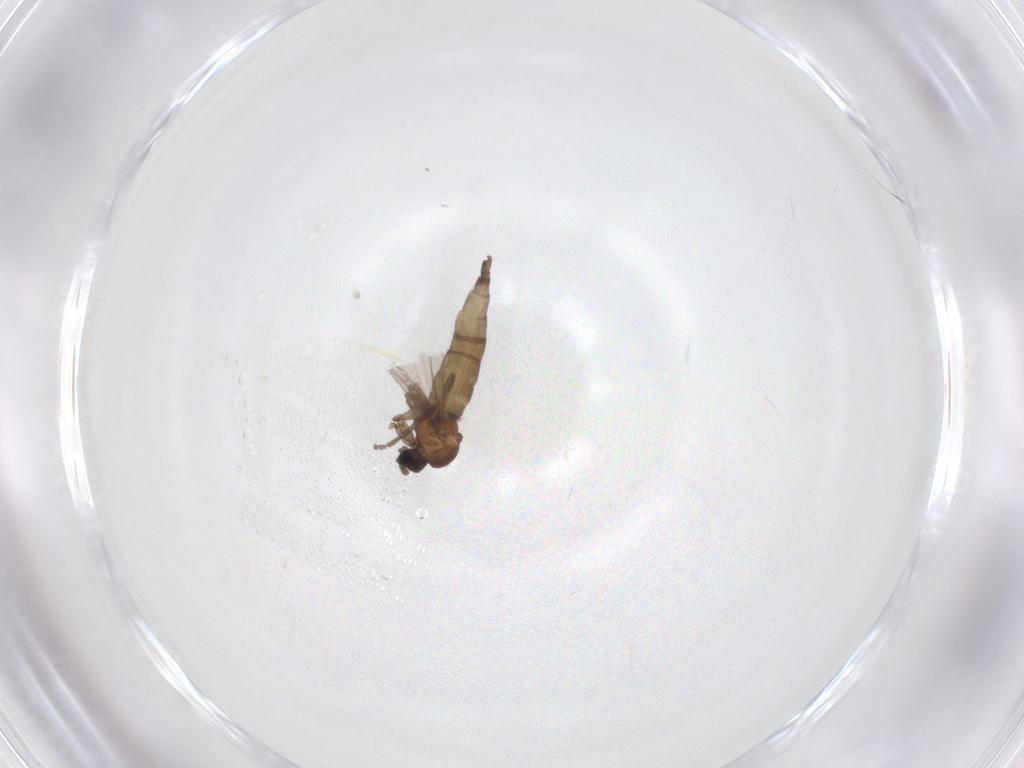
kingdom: Animalia
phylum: Arthropoda
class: Insecta
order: Diptera
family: Sciaridae
